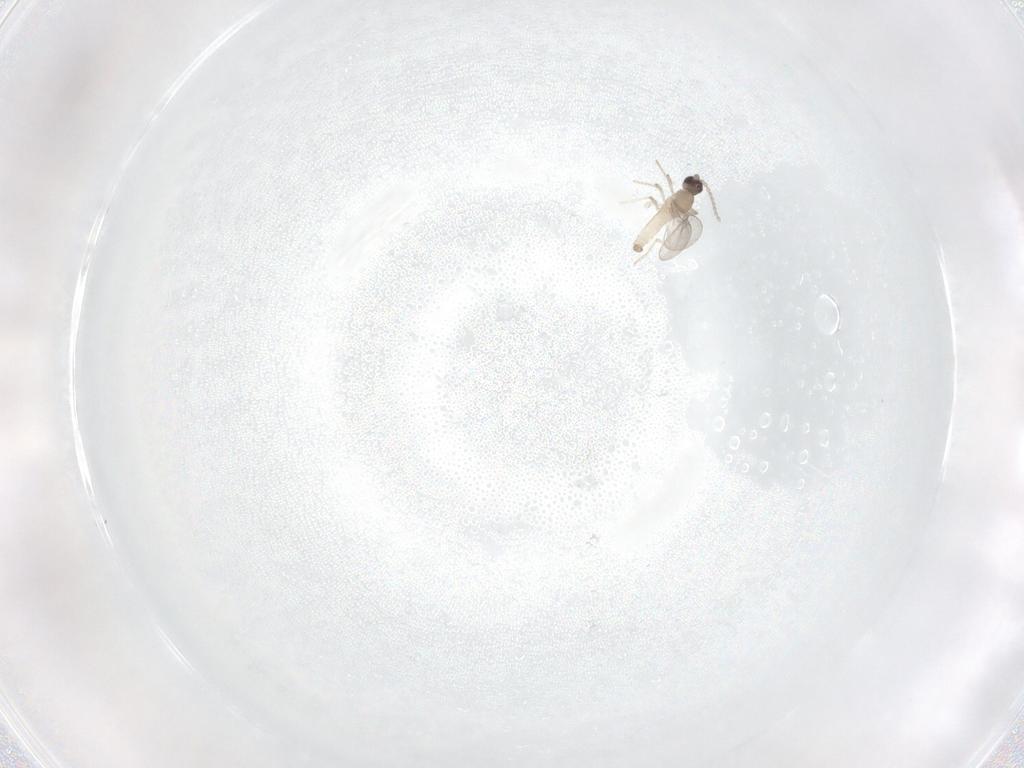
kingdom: Animalia
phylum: Arthropoda
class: Insecta
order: Diptera
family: Cecidomyiidae
